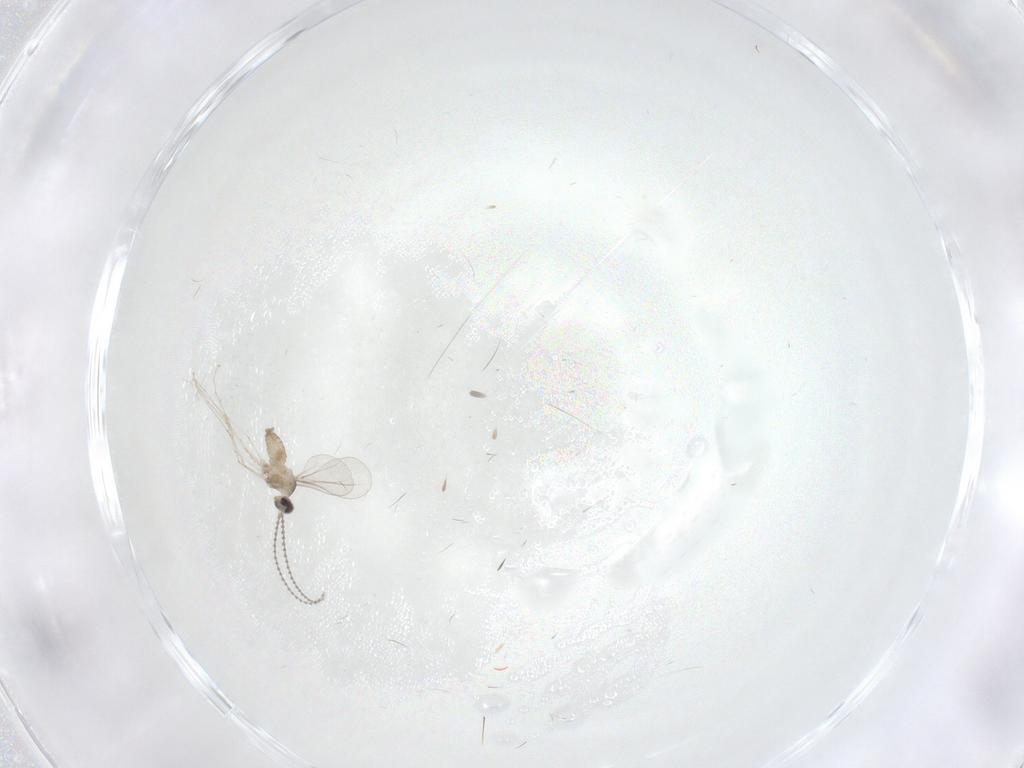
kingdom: Animalia
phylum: Arthropoda
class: Insecta
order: Diptera
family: Cecidomyiidae
